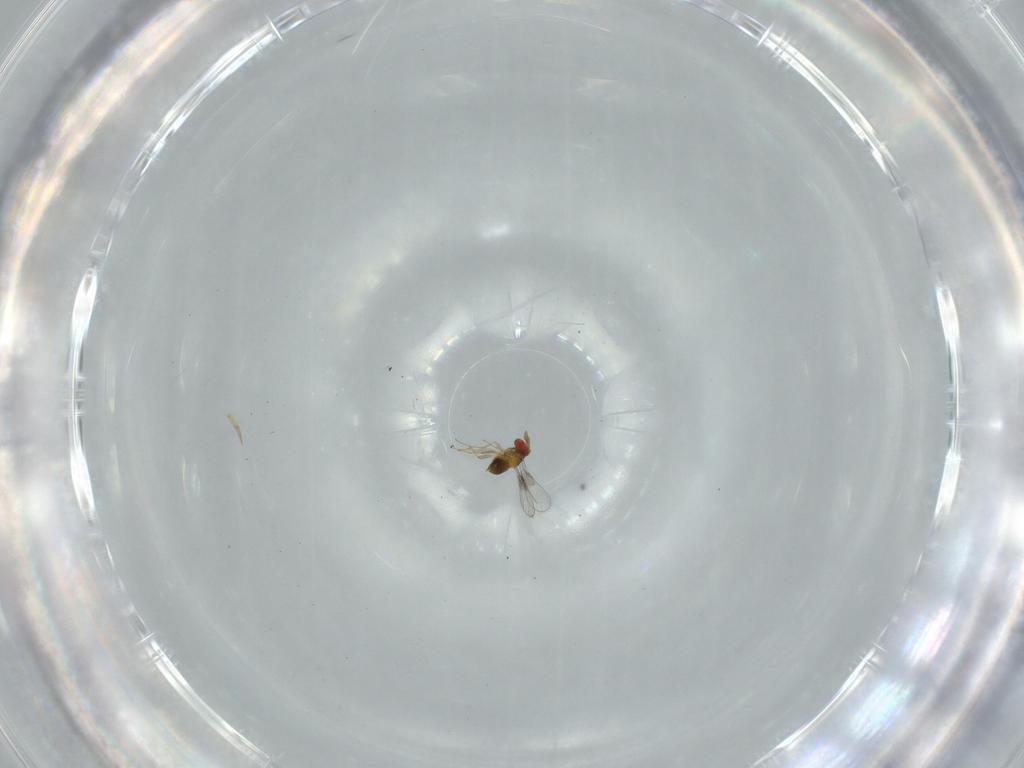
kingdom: Animalia
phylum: Arthropoda
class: Insecta
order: Hymenoptera
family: Trichogrammatidae
